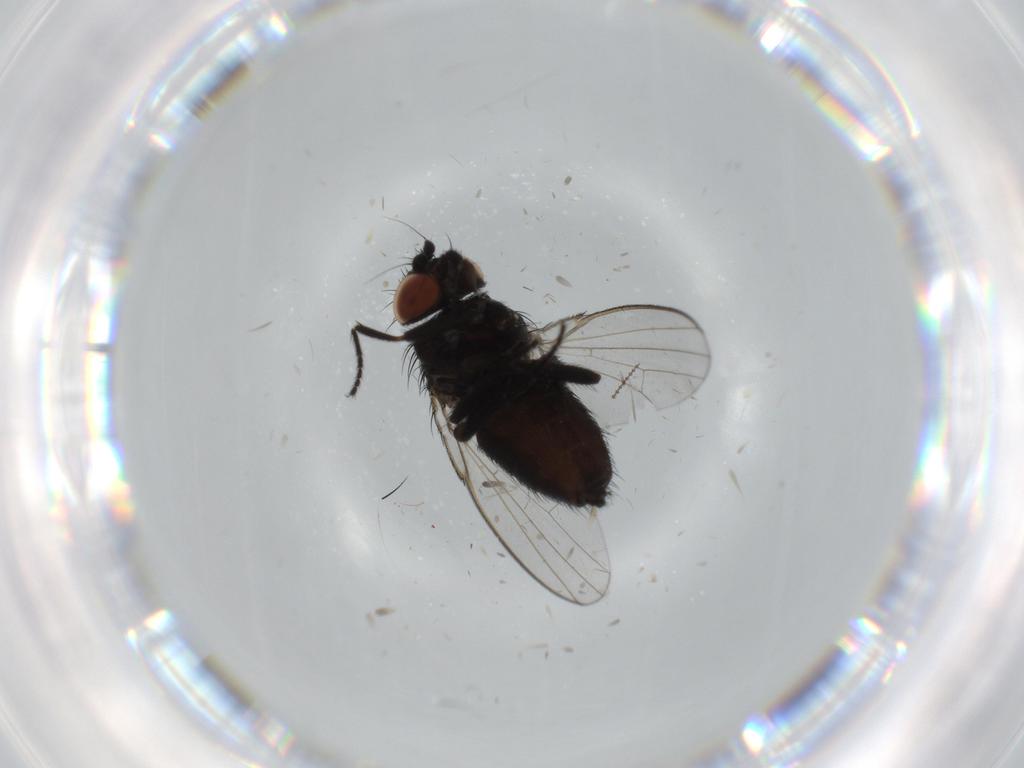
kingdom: Animalia
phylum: Arthropoda
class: Insecta
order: Diptera
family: Milichiidae
